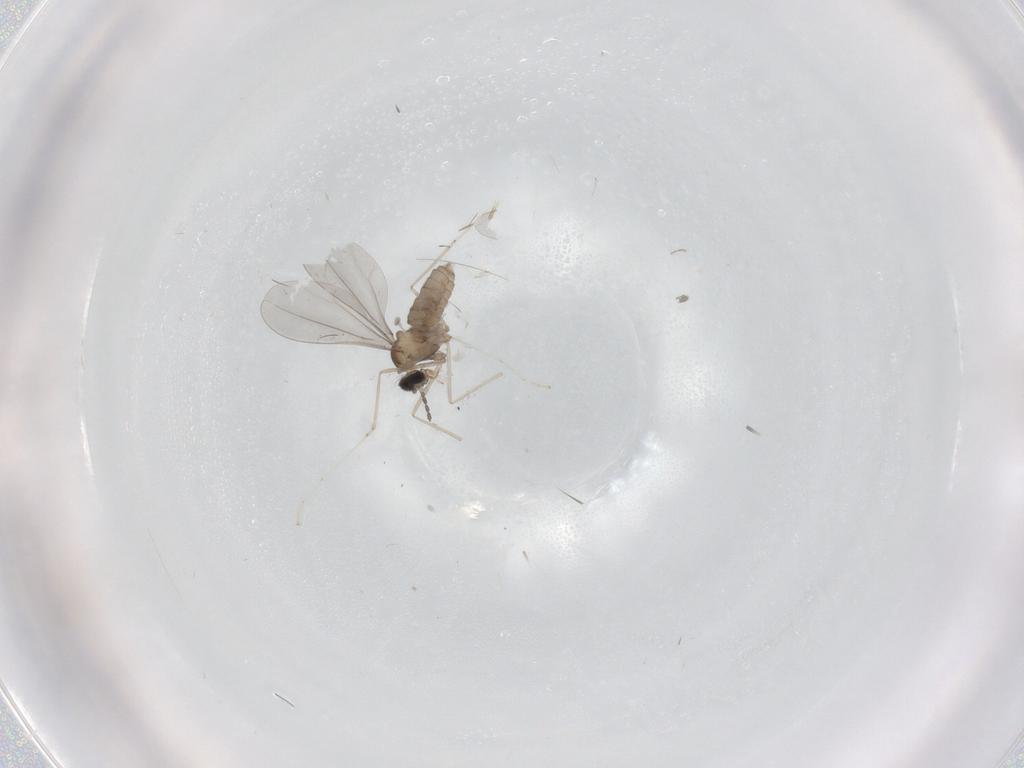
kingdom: Animalia
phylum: Arthropoda
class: Insecta
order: Diptera
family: Cecidomyiidae
